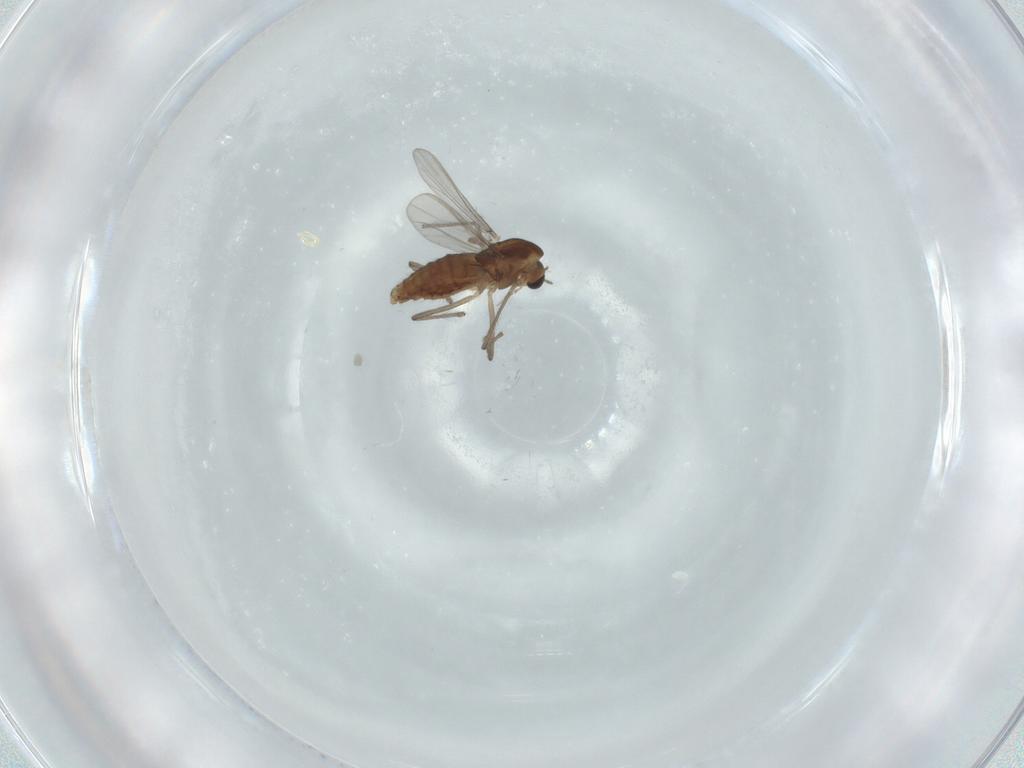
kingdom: Animalia
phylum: Arthropoda
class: Insecta
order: Diptera
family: Chironomidae
